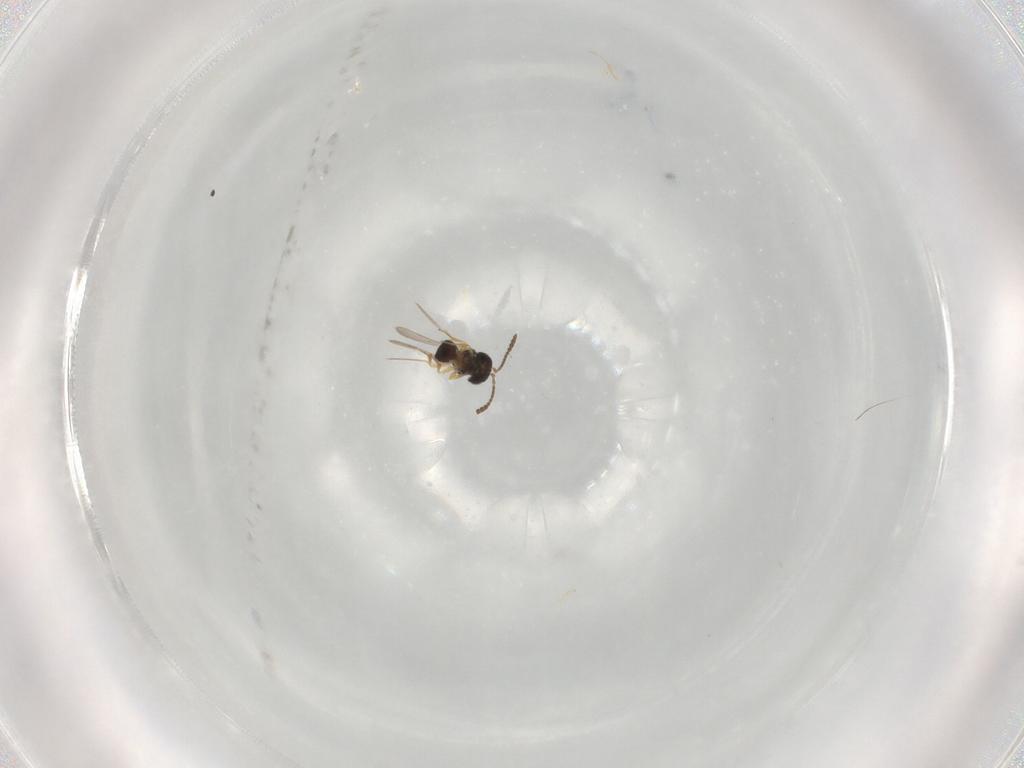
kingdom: Animalia
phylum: Arthropoda
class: Insecta
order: Hymenoptera
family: Scelionidae
